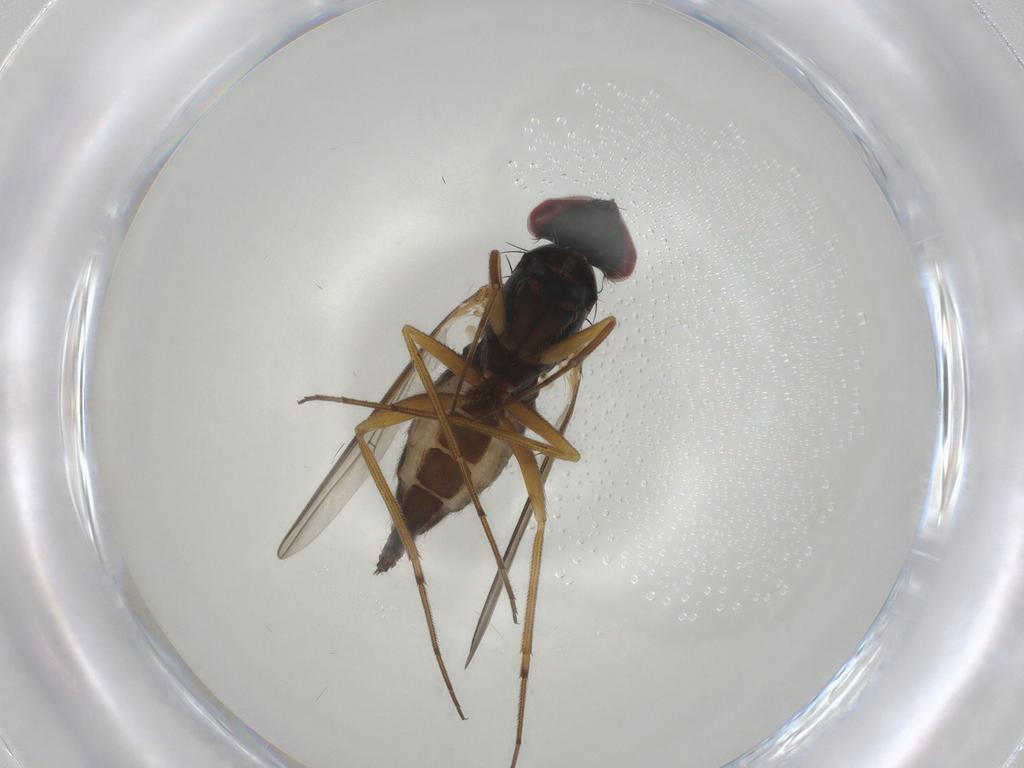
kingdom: Animalia
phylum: Arthropoda
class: Insecta
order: Diptera
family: Dolichopodidae
